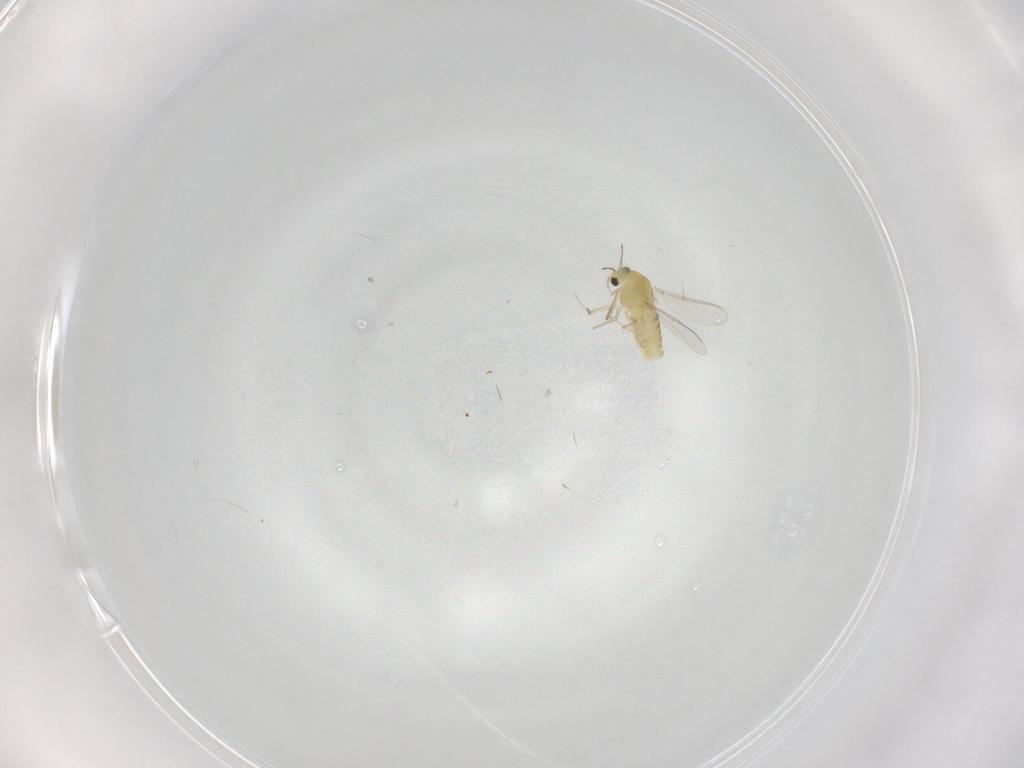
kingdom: Animalia
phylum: Arthropoda
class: Insecta
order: Diptera
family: Chironomidae
